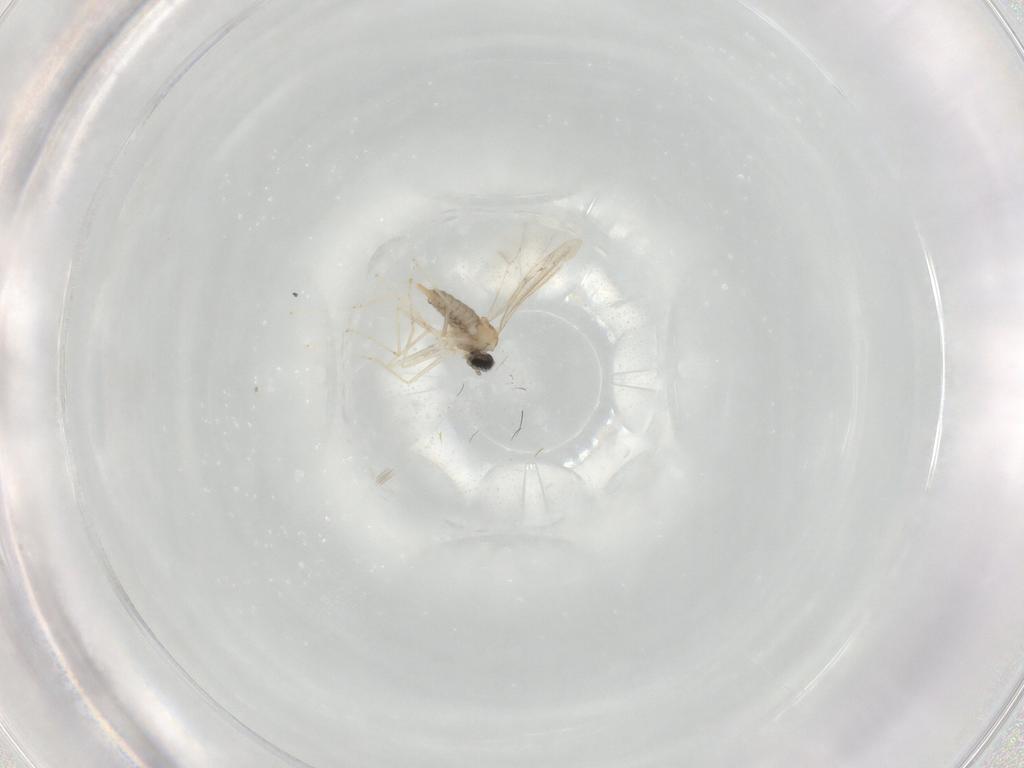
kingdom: Animalia
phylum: Arthropoda
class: Insecta
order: Diptera
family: Cecidomyiidae
